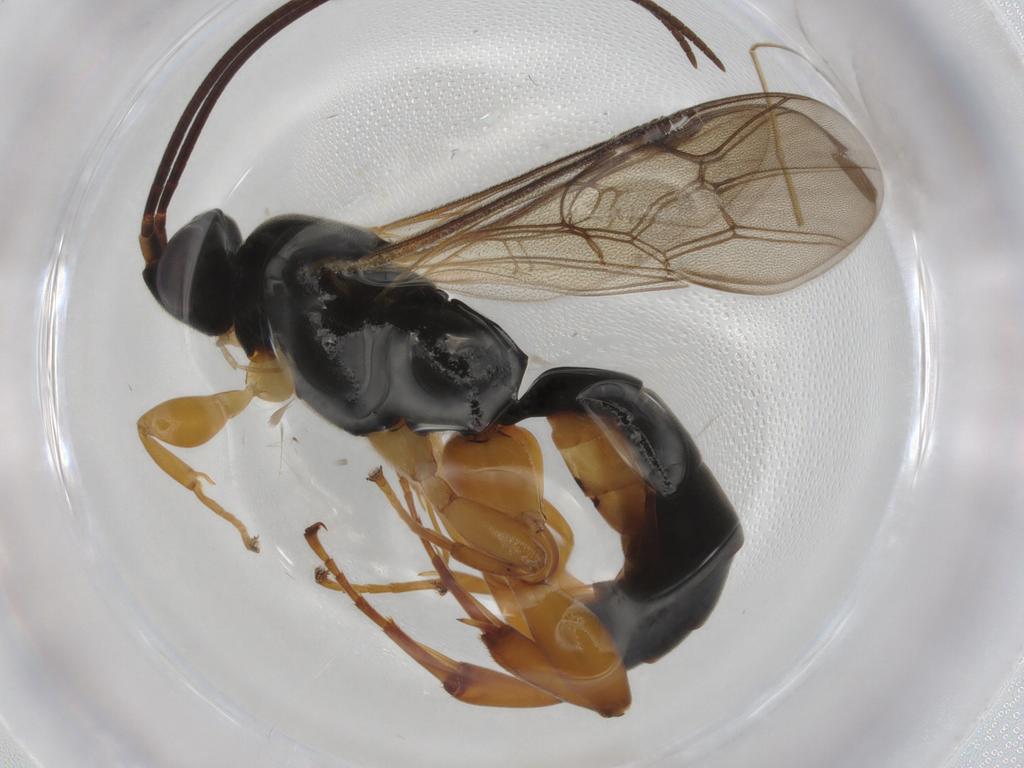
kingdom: Animalia
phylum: Arthropoda
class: Insecta
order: Hymenoptera
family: Ichneumonidae
